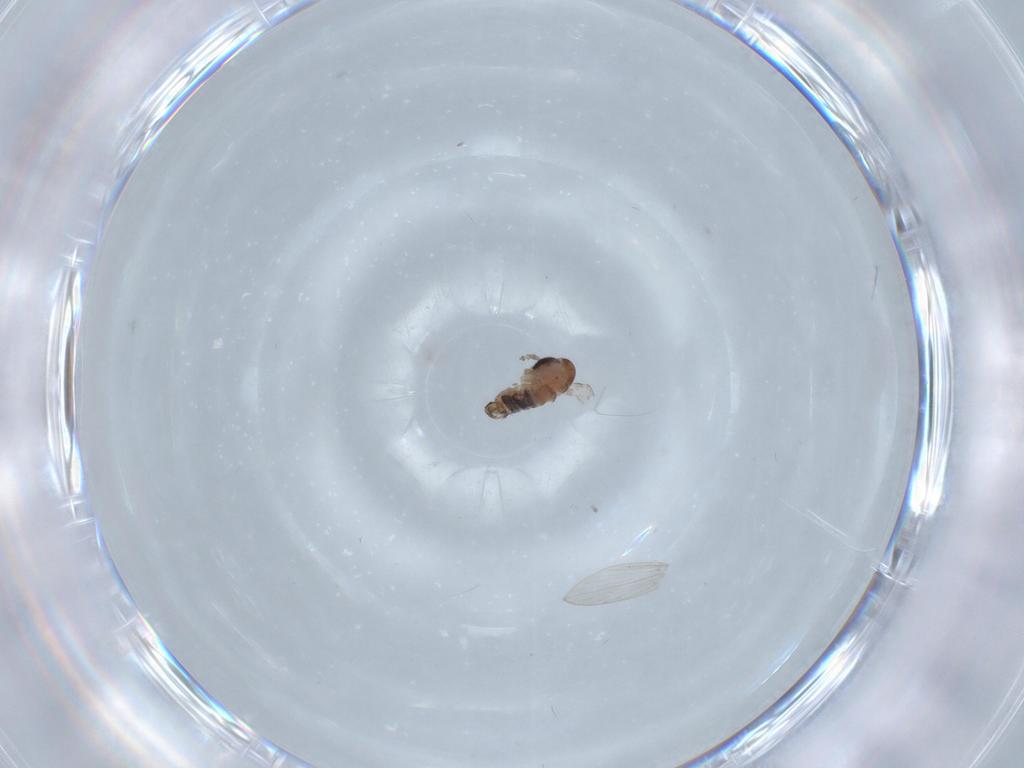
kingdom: Animalia
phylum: Arthropoda
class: Insecta
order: Diptera
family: Psychodidae
